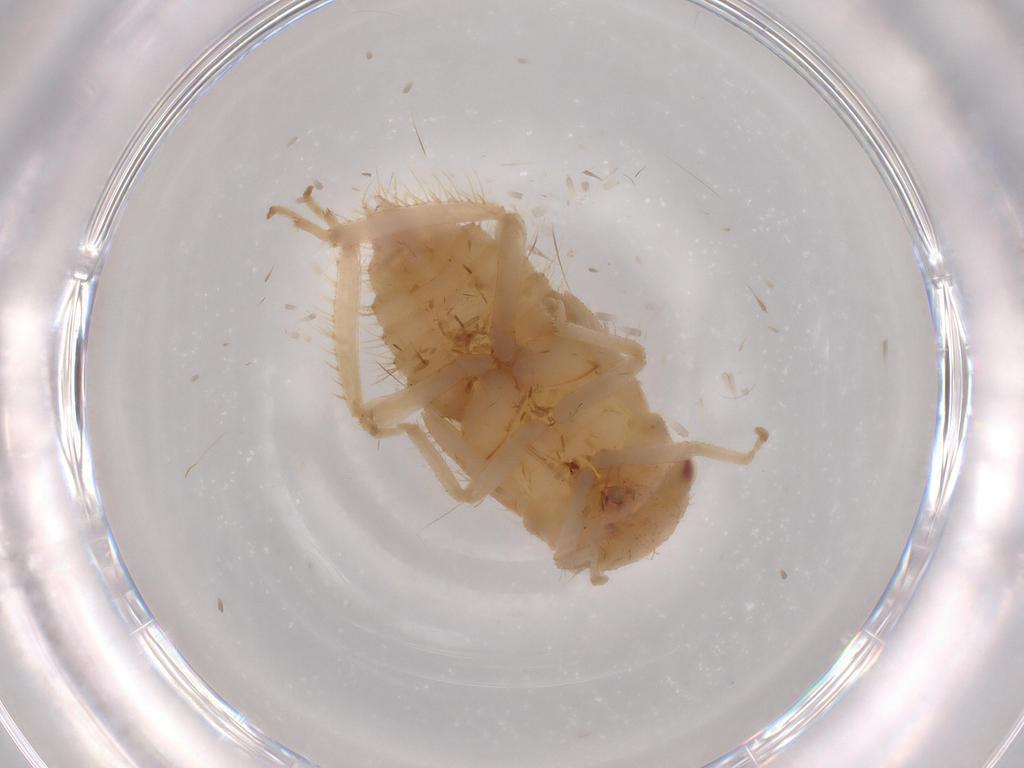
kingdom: Animalia
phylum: Arthropoda
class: Insecta
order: Hemiptera
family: Cicadellidae
